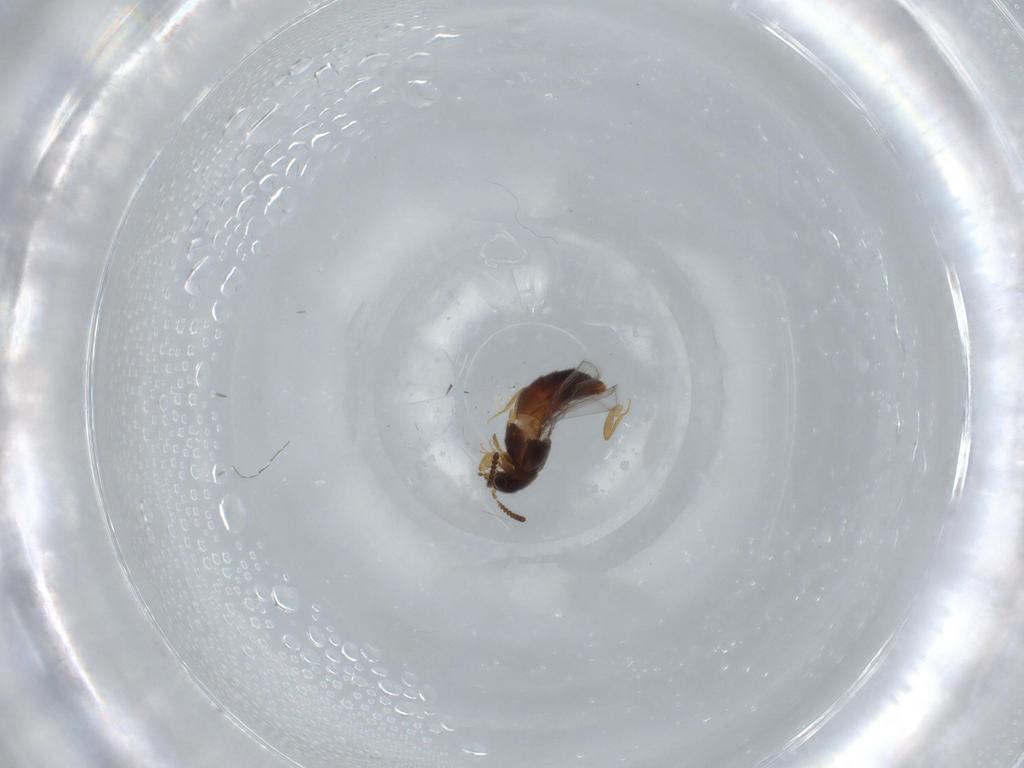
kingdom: Animalia
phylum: Arthropoda
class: Insecta
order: Coleoptera
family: Staphylinidae
